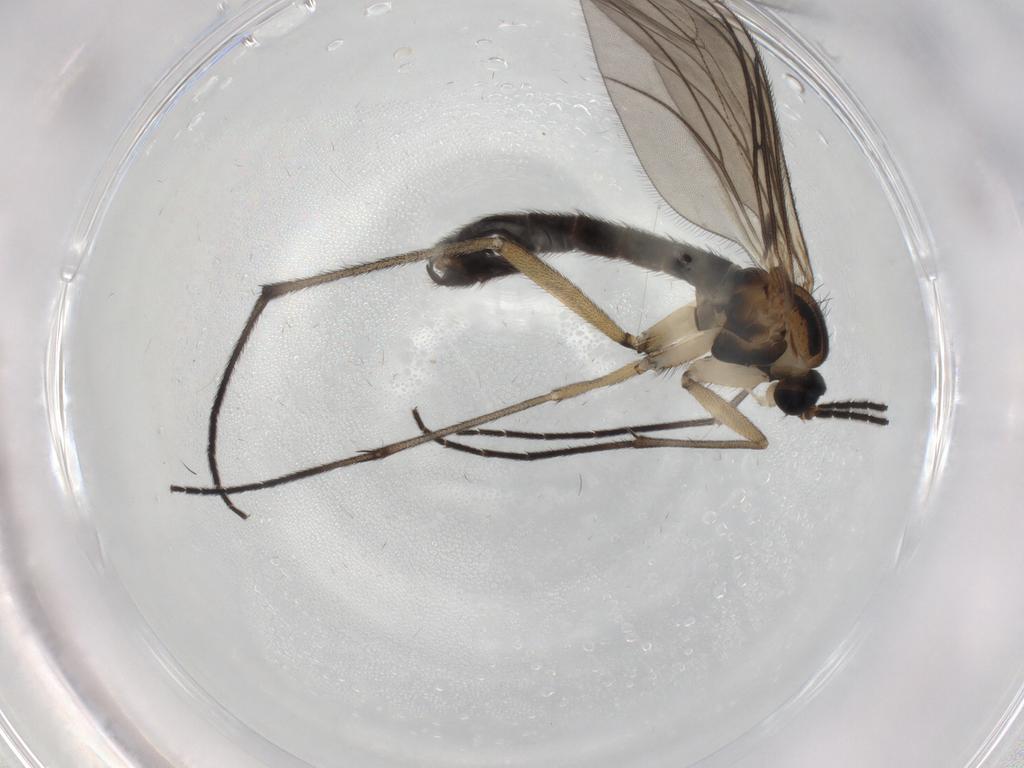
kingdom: Animalia
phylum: Arthropoda
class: Insecta
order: Diptera
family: Sciaridae
